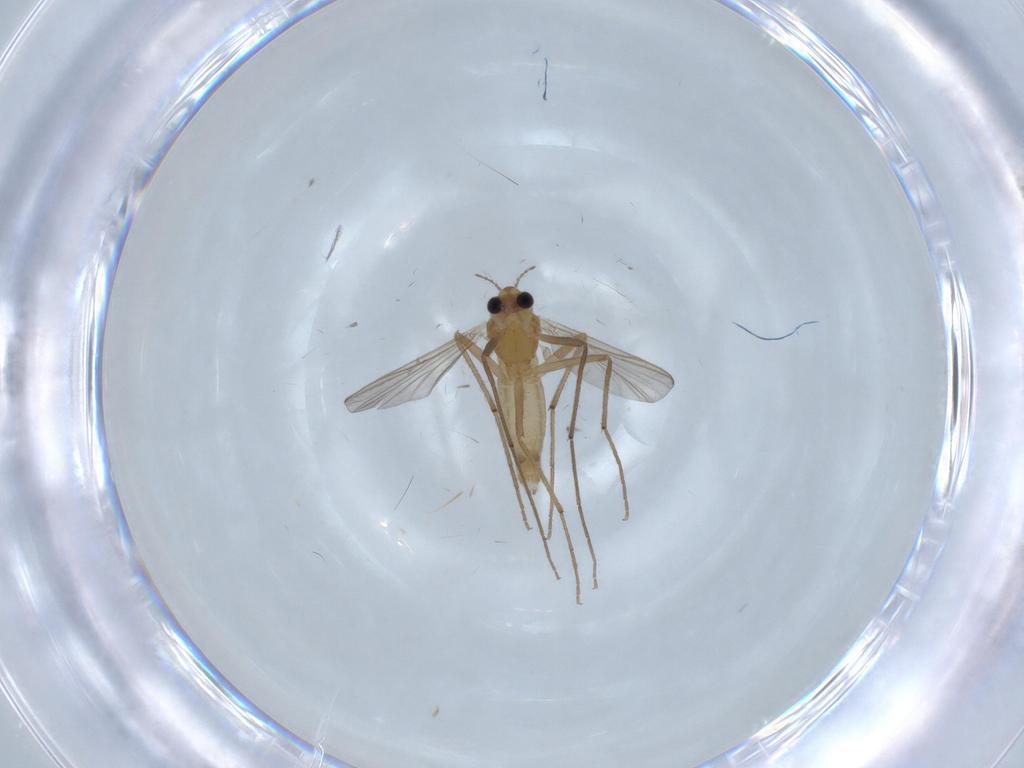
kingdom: Animalia
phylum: Arthropoda
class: Insecta
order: Diptera
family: Chironomidae
